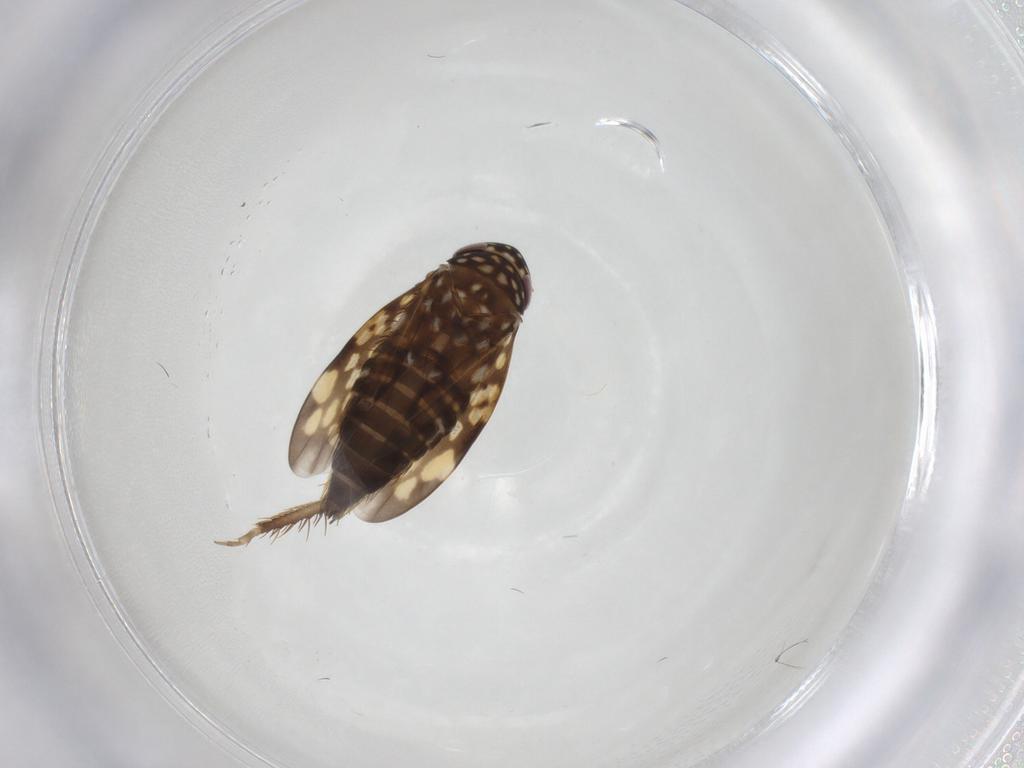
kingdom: Animalia
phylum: Arthropoda
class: Insecta
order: Hemiptera
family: Cicadellidae
